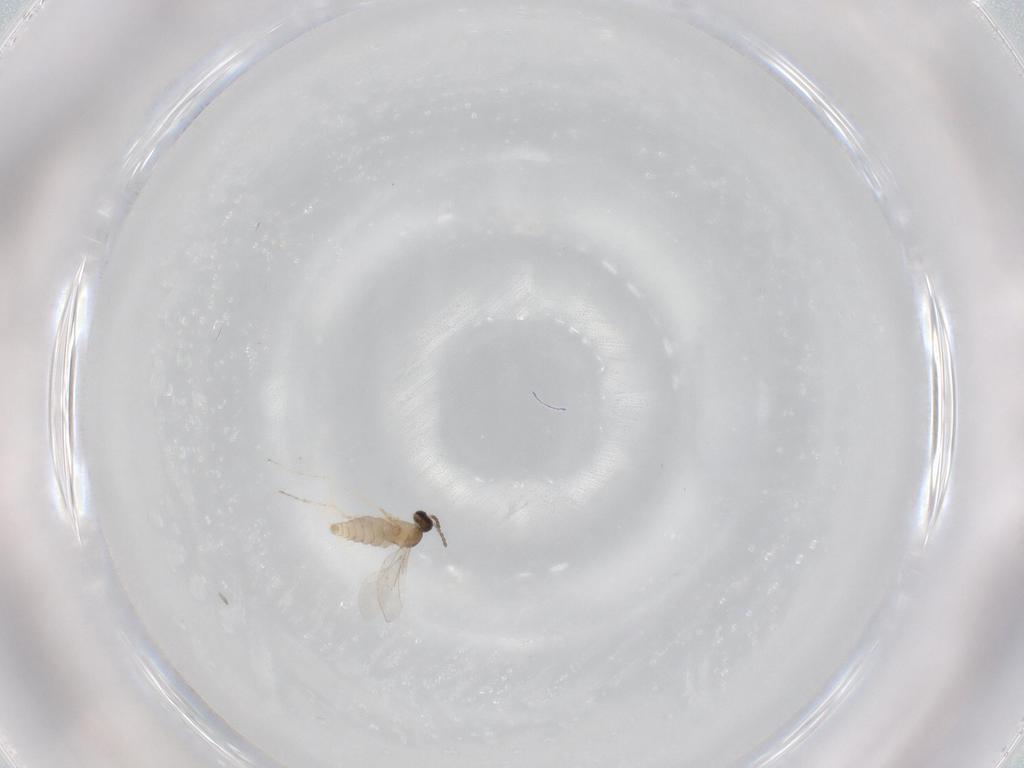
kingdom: Animalia
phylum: Arthropoda
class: Insecta
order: Diptera
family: Cecidomyiidae
